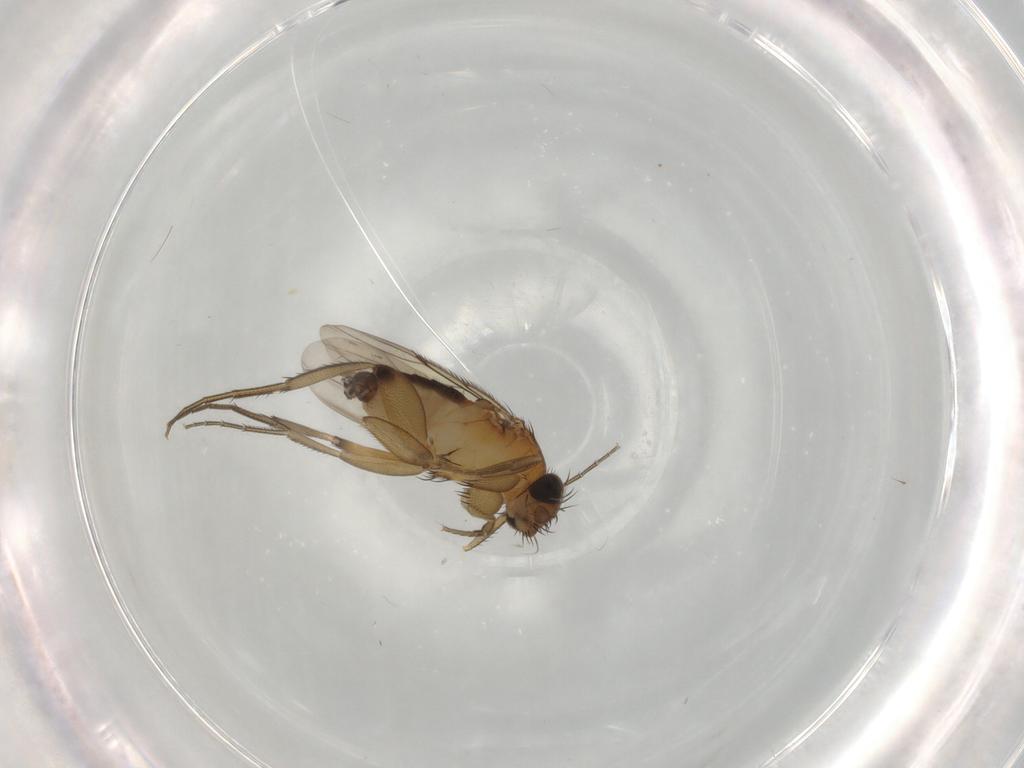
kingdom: Animalia
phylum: Arthropoda
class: Insecta
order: Diptera
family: Phoridae
